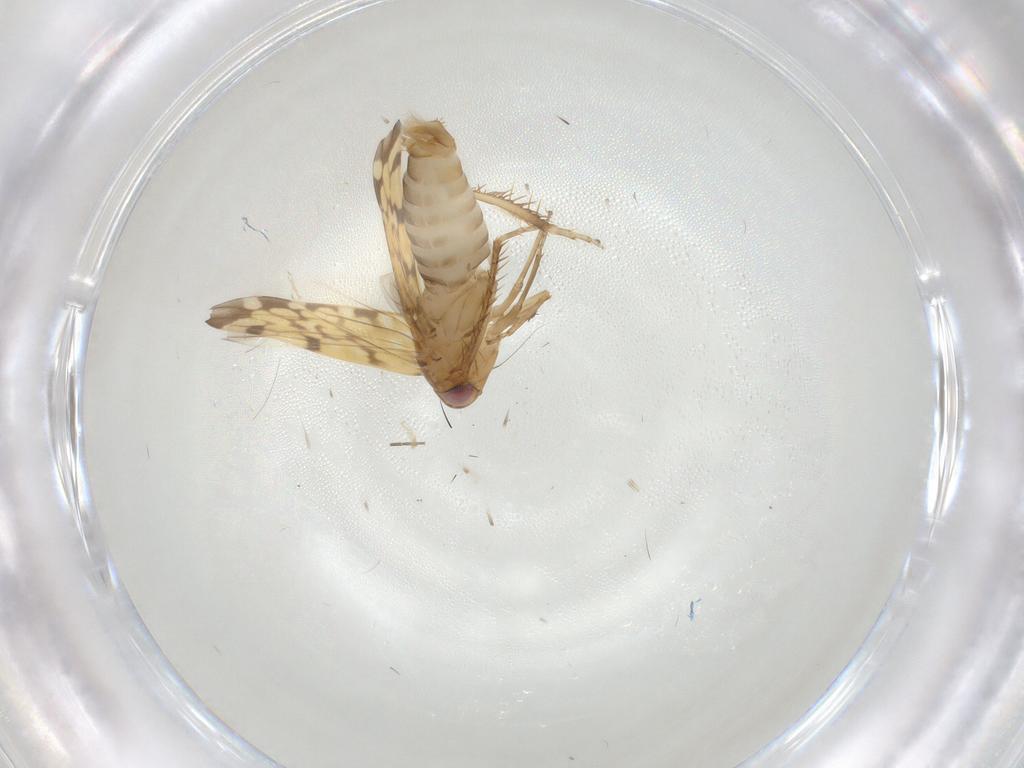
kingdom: Animalia
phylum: Arthropoda
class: Insecta
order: Hemiptera
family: Cicadellidae
